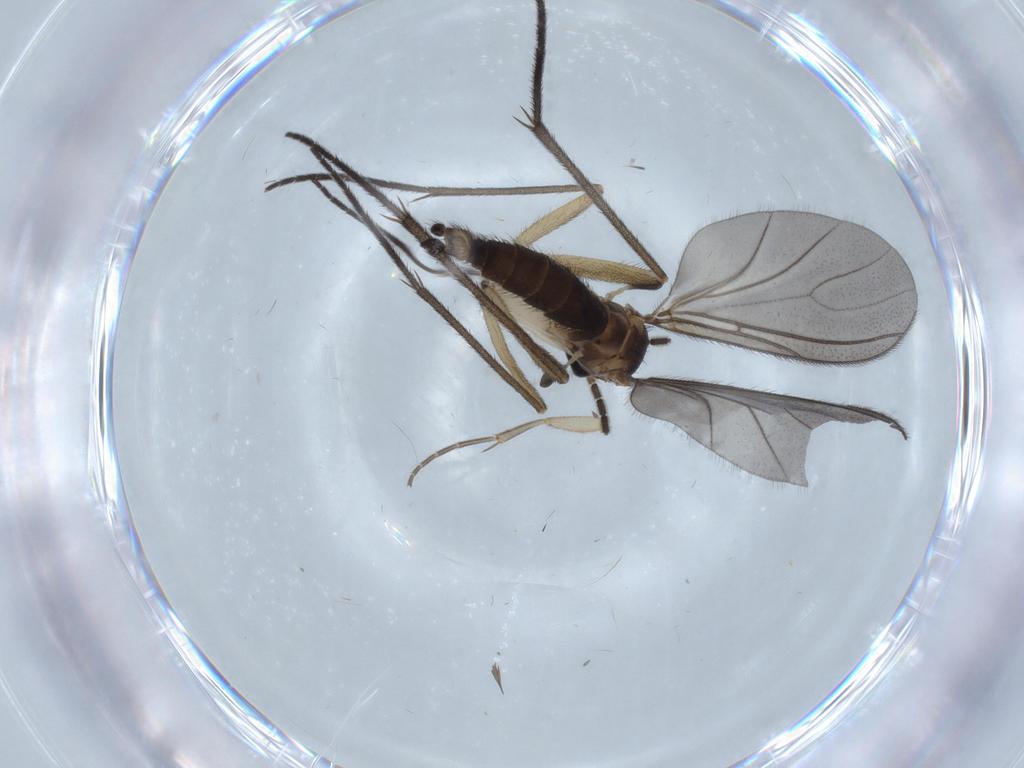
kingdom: Animalia
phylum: Arthropoda
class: Insecta
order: Diptera
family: Sciaridae
